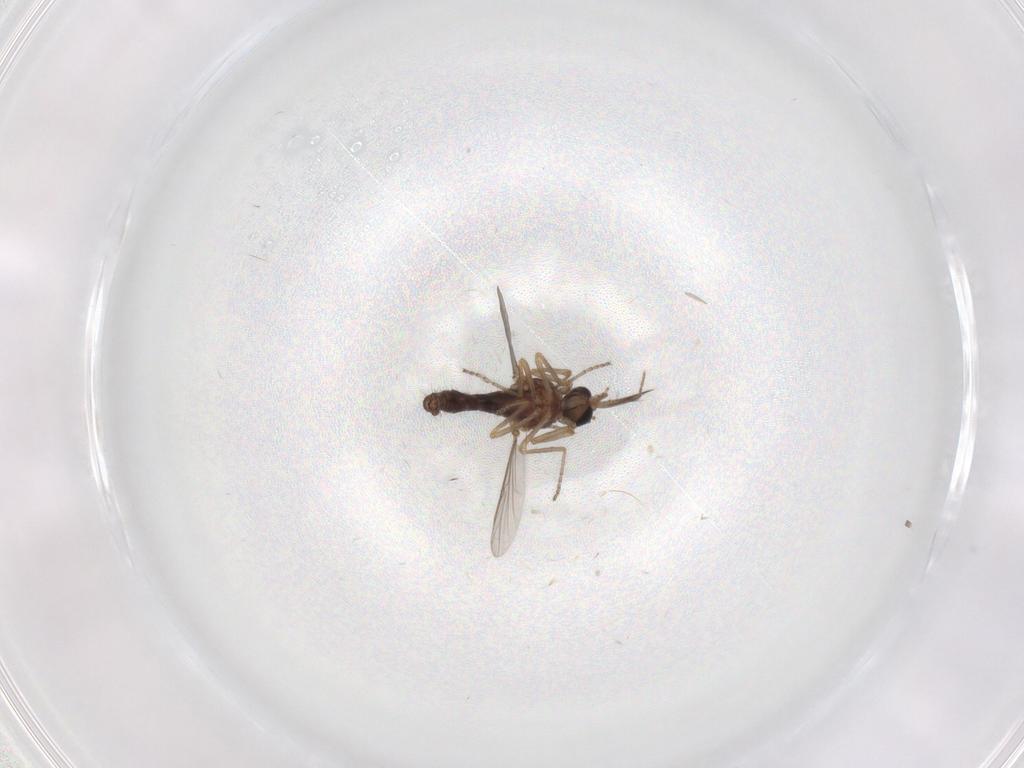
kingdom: Animalia
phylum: Arthropoda
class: Insecta
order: Diptera
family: Ceratopogonidae
